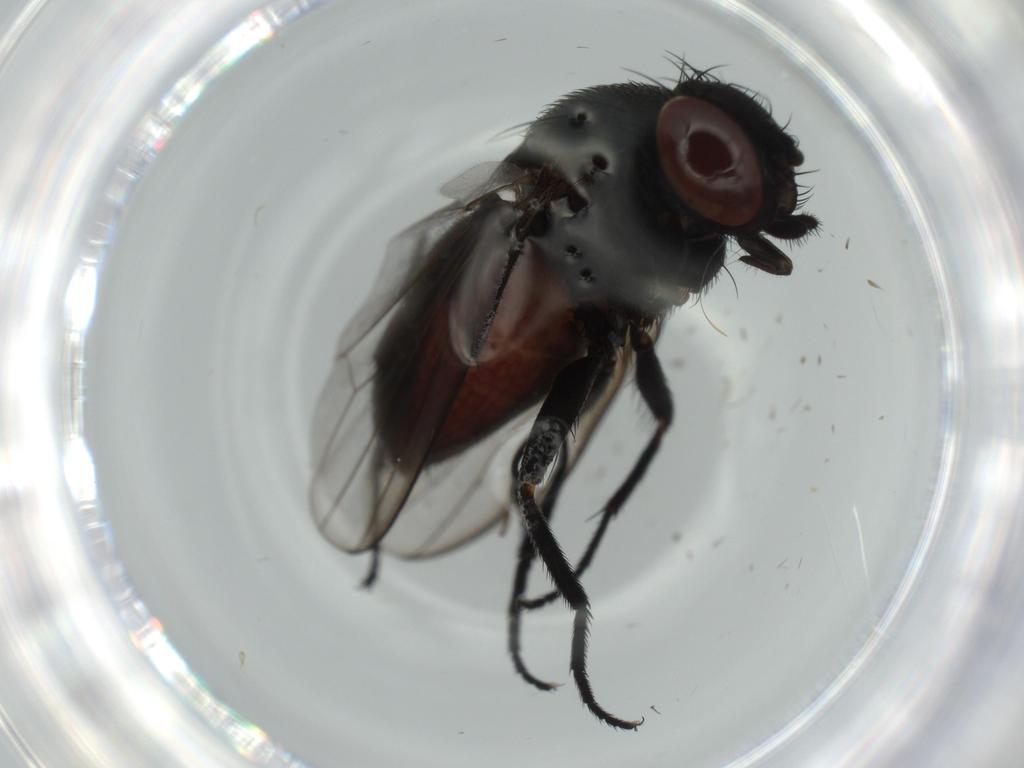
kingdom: Animalia
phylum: Arthropoda
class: Insecta
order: Diptera
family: Milichiidae
